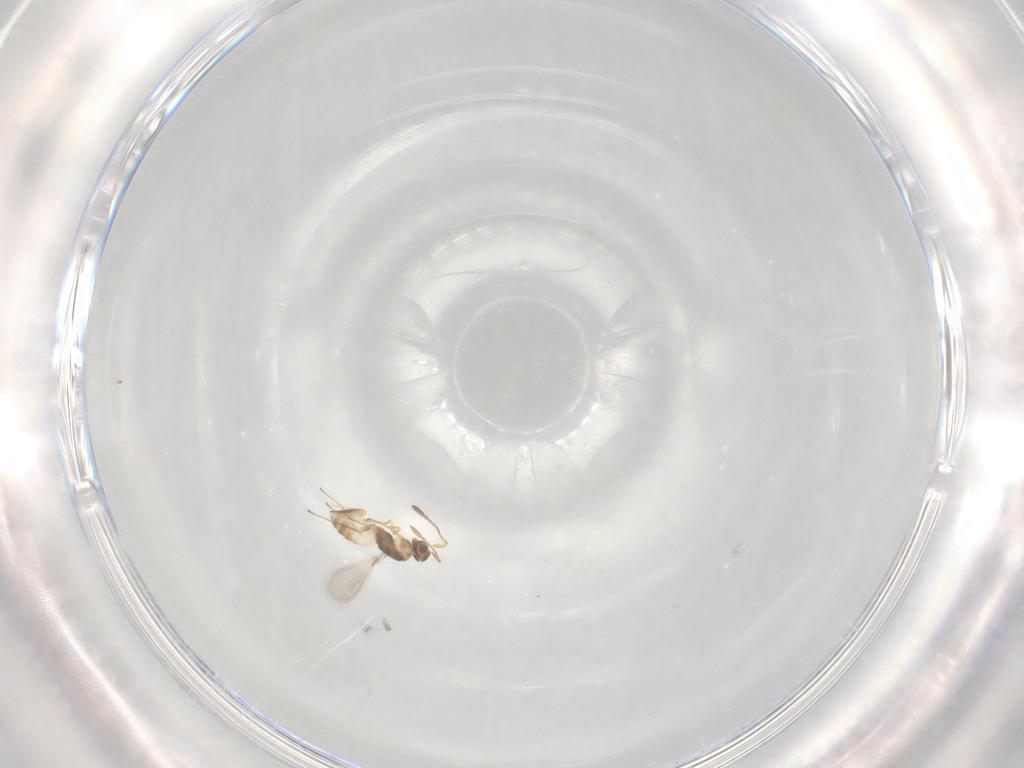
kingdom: Animalia
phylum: Arthropoda
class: Insecta
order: Hymenoptera
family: Mymaridae
